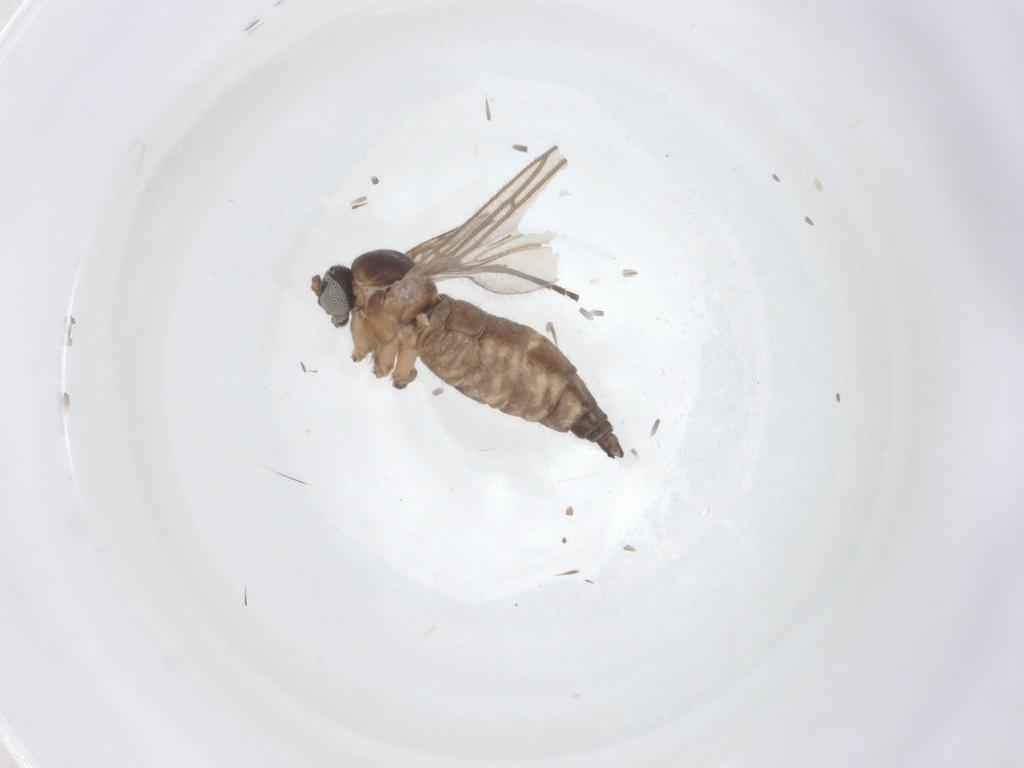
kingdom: Animalia
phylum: Arthropoda
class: Insecta
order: Diptera
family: Sciaridae
